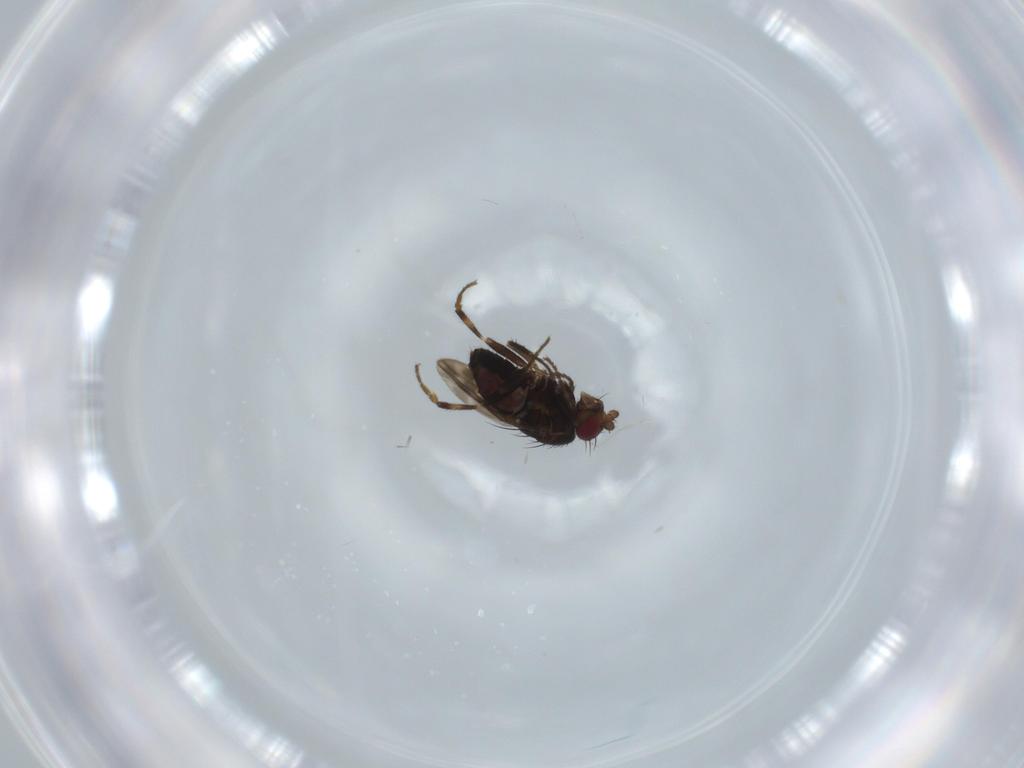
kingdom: Animalia
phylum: Arthropoda
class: Insecta
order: Diptera
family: Sphaeroceridae
